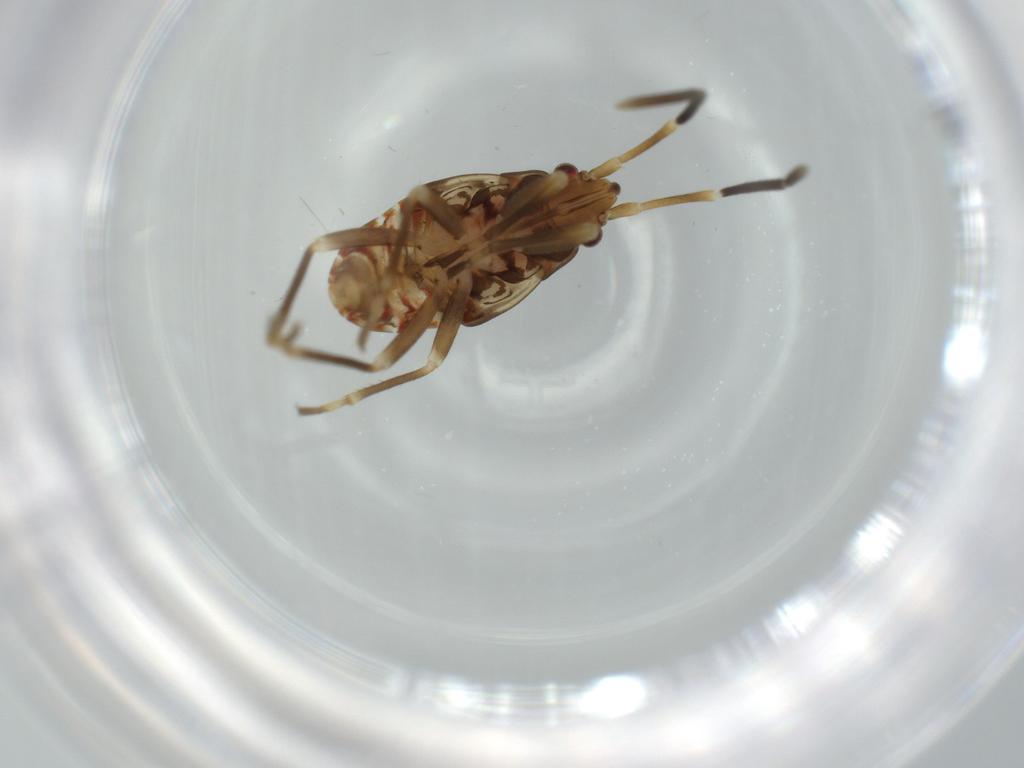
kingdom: Animalia
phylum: Arthropoda
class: Insecta
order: Hemiptera
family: Rhyparochromidae
